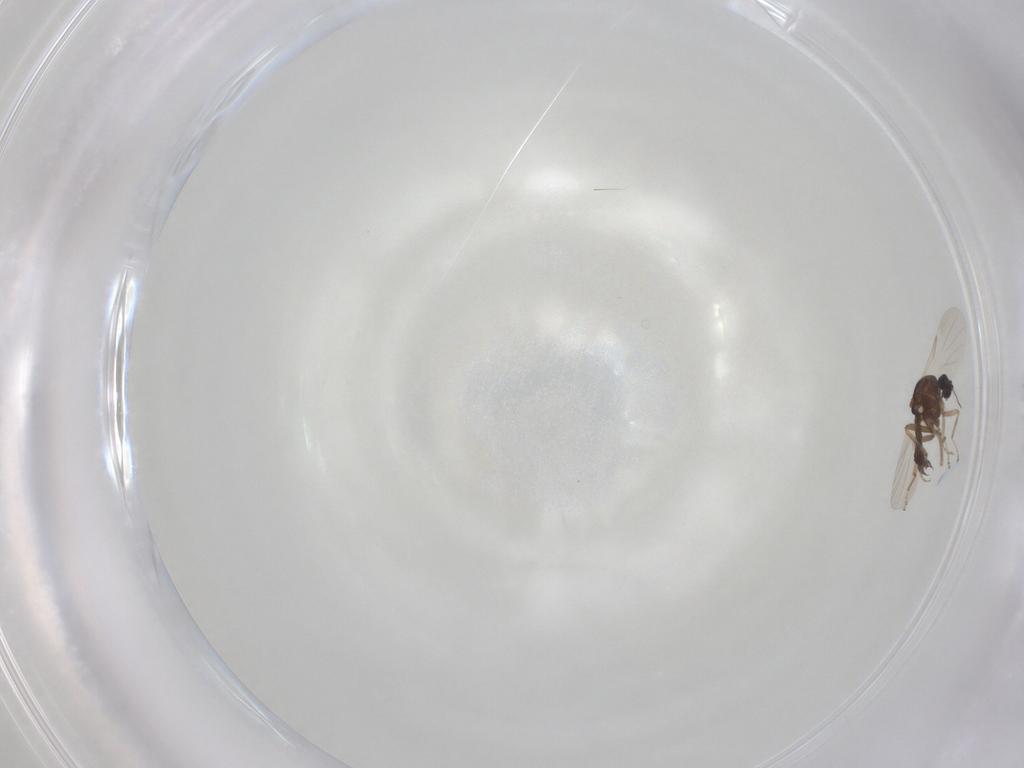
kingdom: Animalia
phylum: Arthropoda
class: Insecta
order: Diptera
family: Ceratopogonidae
